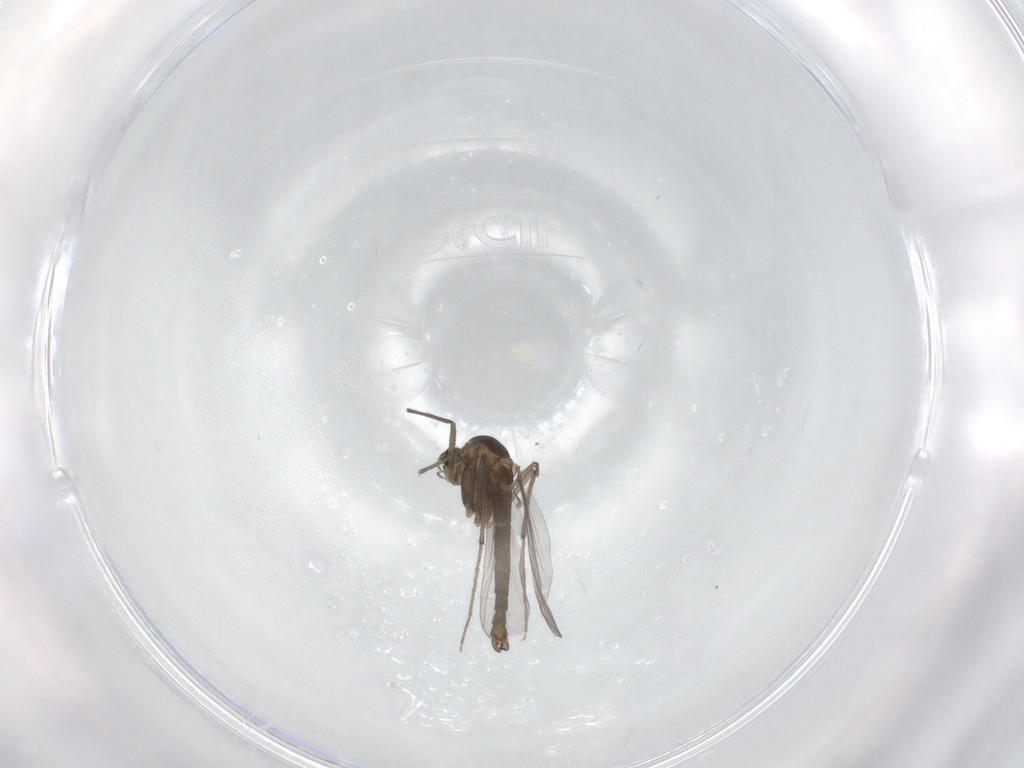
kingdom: Animalia
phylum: Arthropoda
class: Insecta
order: Diptera
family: Chironomidae
